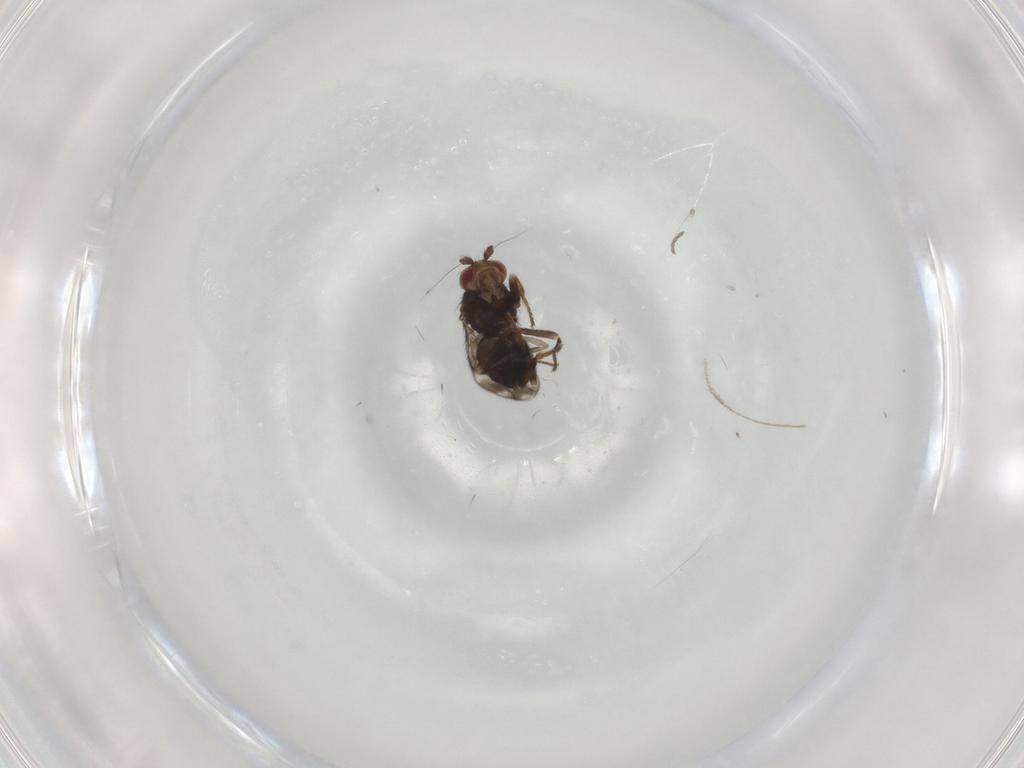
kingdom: Animalia
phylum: Arthropoda
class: Insecta
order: Diptera
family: Sphaeroceridae
